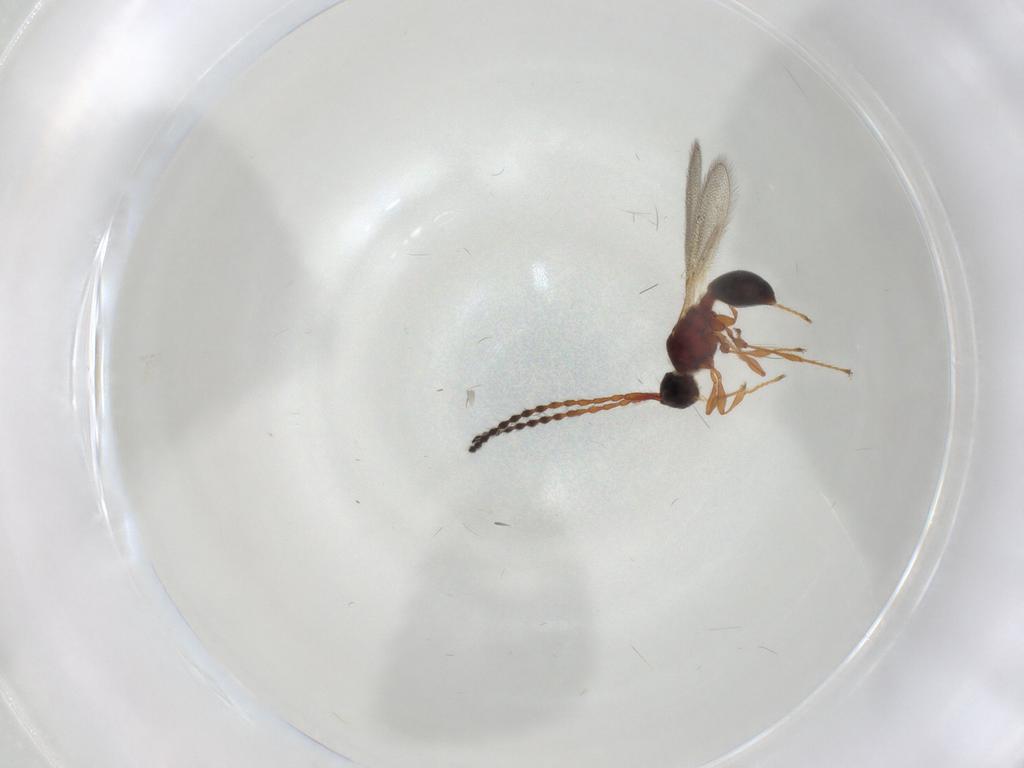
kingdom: Animalia
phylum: Arthropoda
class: Insecta
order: Hymenoptera
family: Diapriidae
